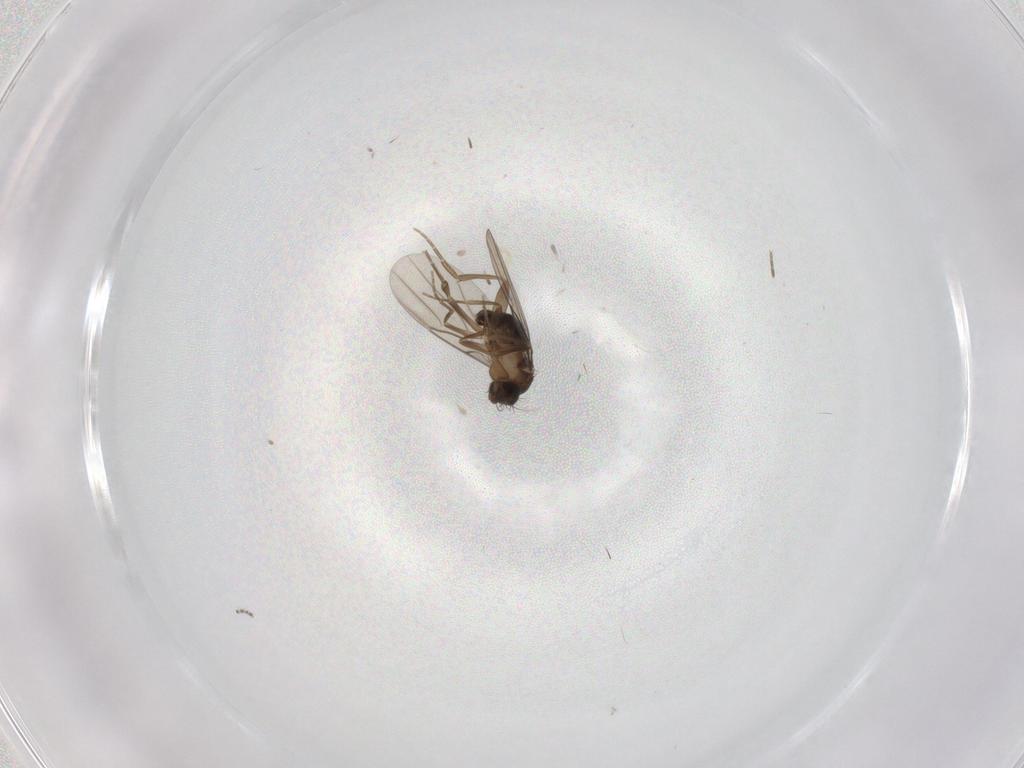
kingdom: Animalia
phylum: Arthropoda
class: Insecta
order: Diptera
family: Phoridae
